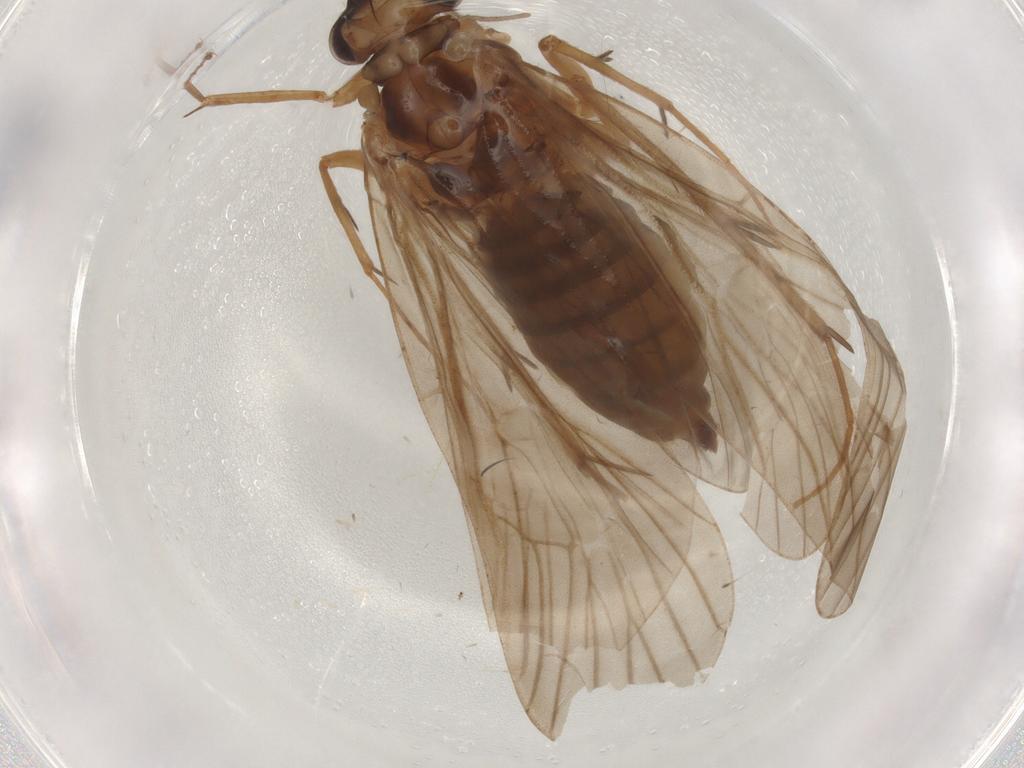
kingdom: Animalia
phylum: Arthropoda
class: Insecta
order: Trichoptera
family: Philopotamidae
